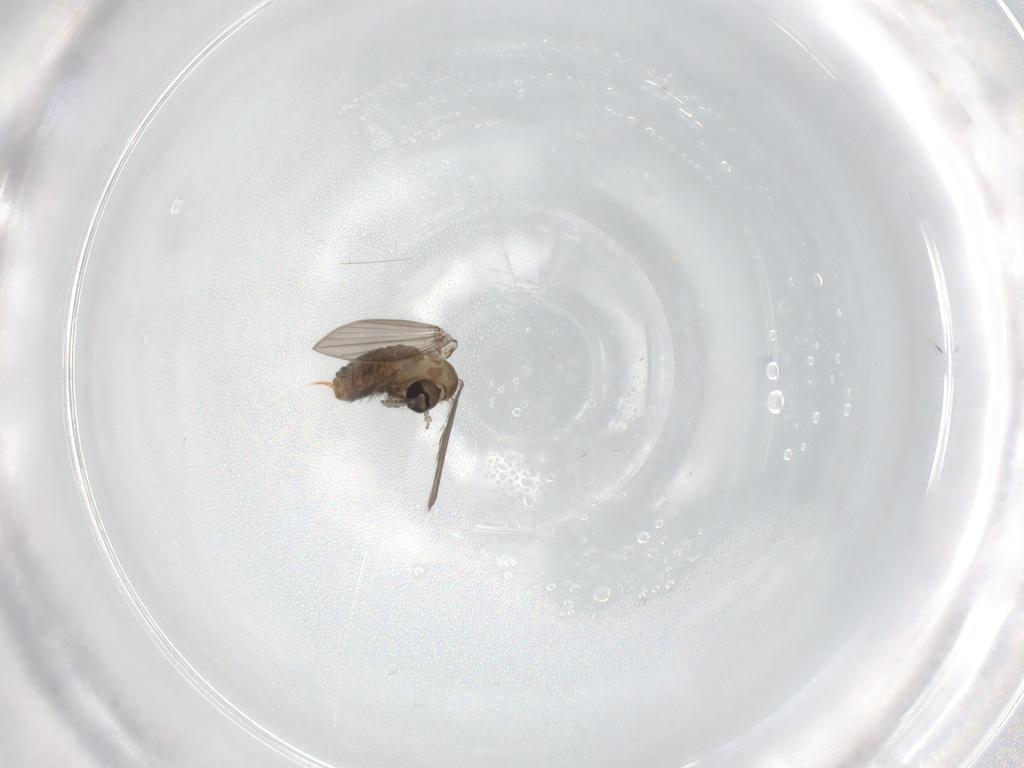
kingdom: Animalia
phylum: Arthropoda
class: Insecta
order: Diptera
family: Psychodidae
